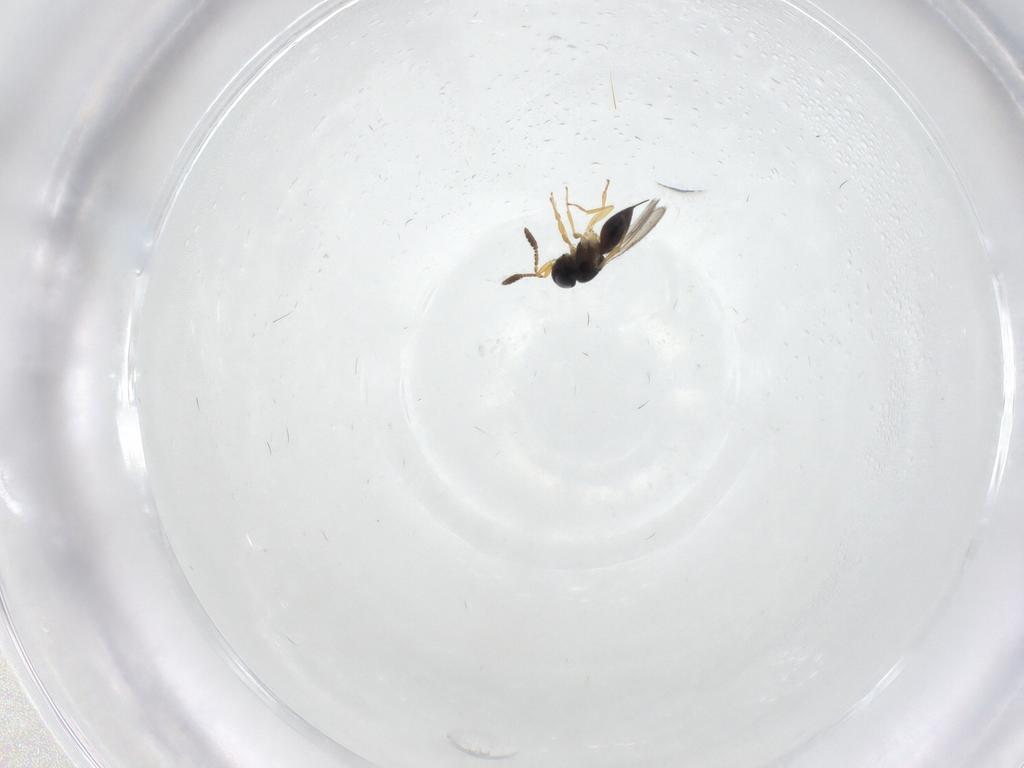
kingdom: Animalia
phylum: Arthropoda
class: Insecta
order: Hymenoptera
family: Scelionidae
